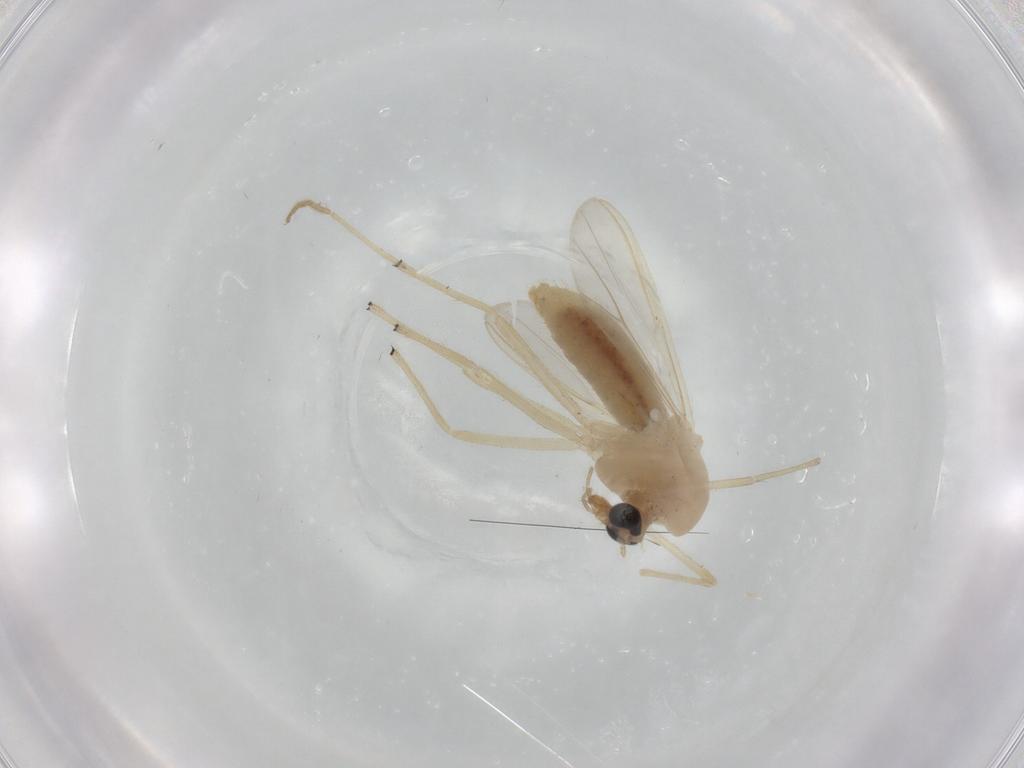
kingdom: Animalia
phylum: Arthropoda
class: Insecta
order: Diptera
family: Chironomidae
